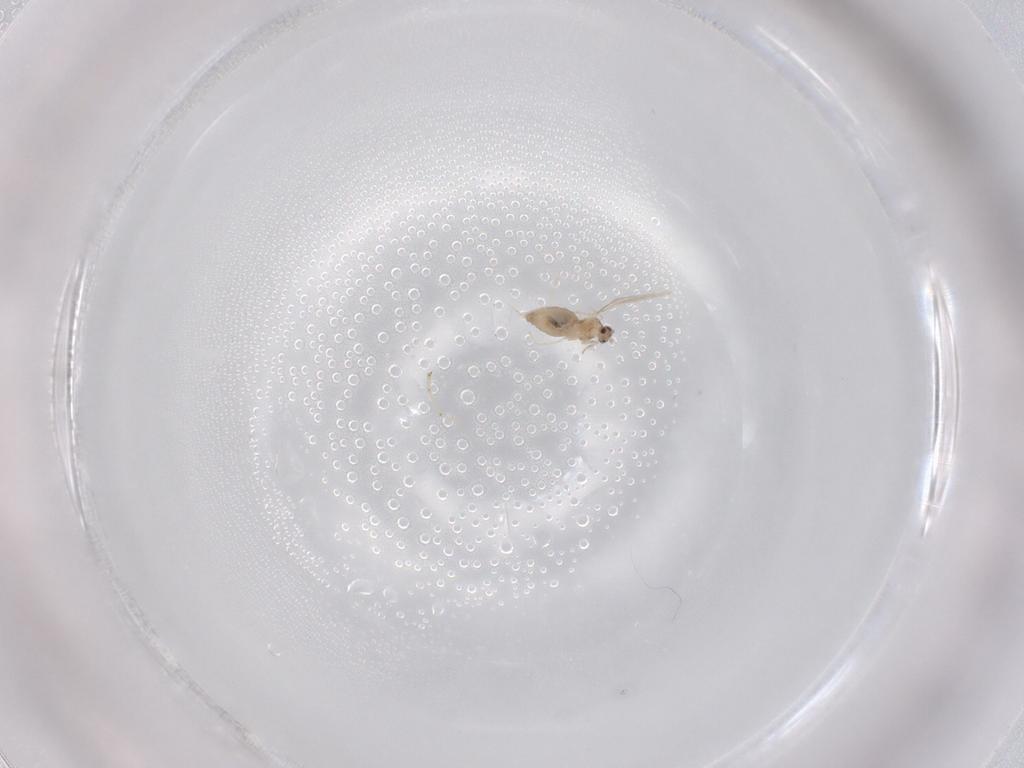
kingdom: Animalia
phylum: Arthropoda
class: Insecta
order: Diptera
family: Cecidomyiidae
